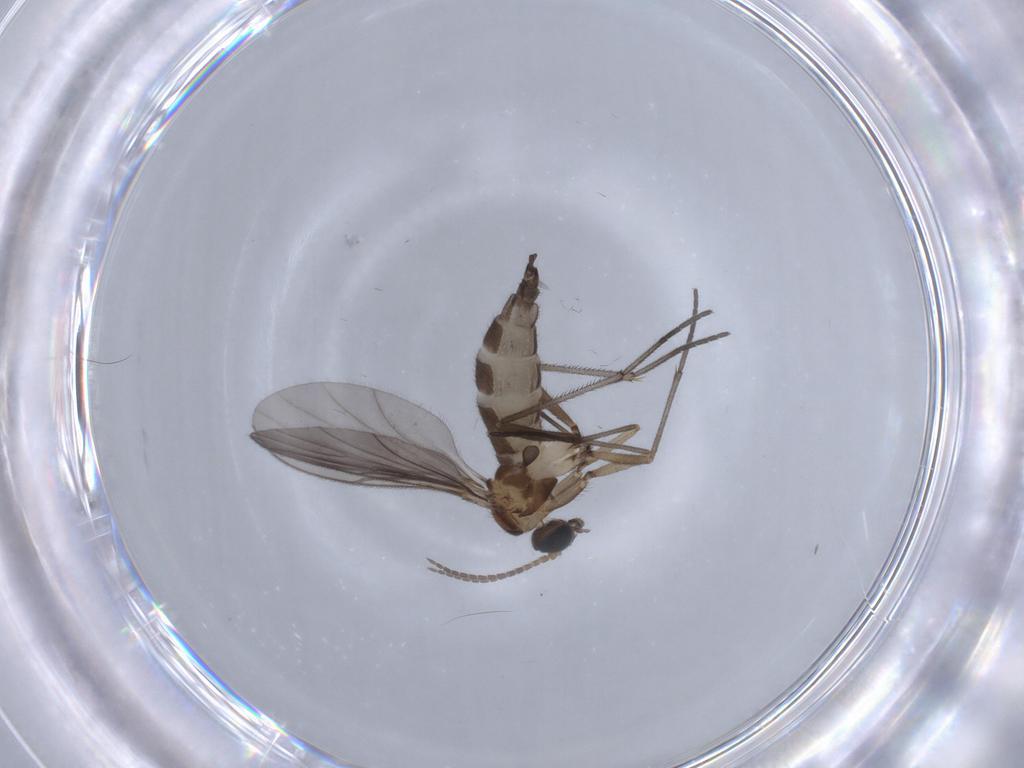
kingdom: Animalia
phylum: Arthropoda
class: Insecta
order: Diptera
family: Sciaridae
